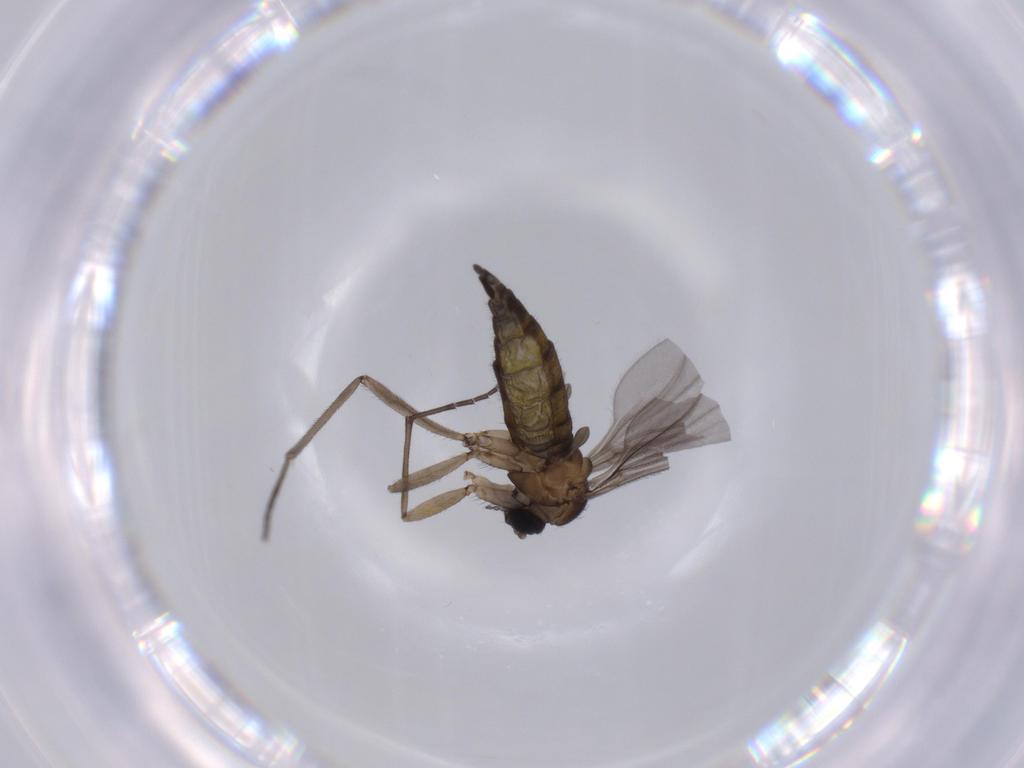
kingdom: Animalia
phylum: Arthropoda
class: Insecta
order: Diptera
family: Sciaridae
